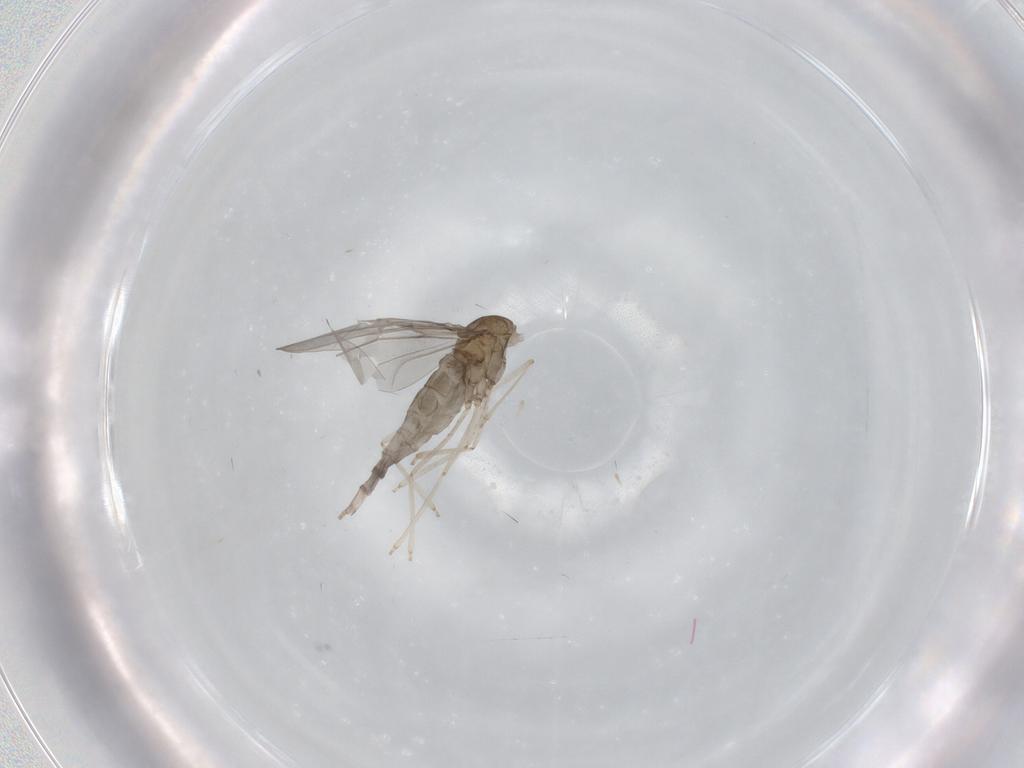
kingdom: Animalia
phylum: Arthropoda
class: Insecta
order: Diptera
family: Cecidomyiidae
